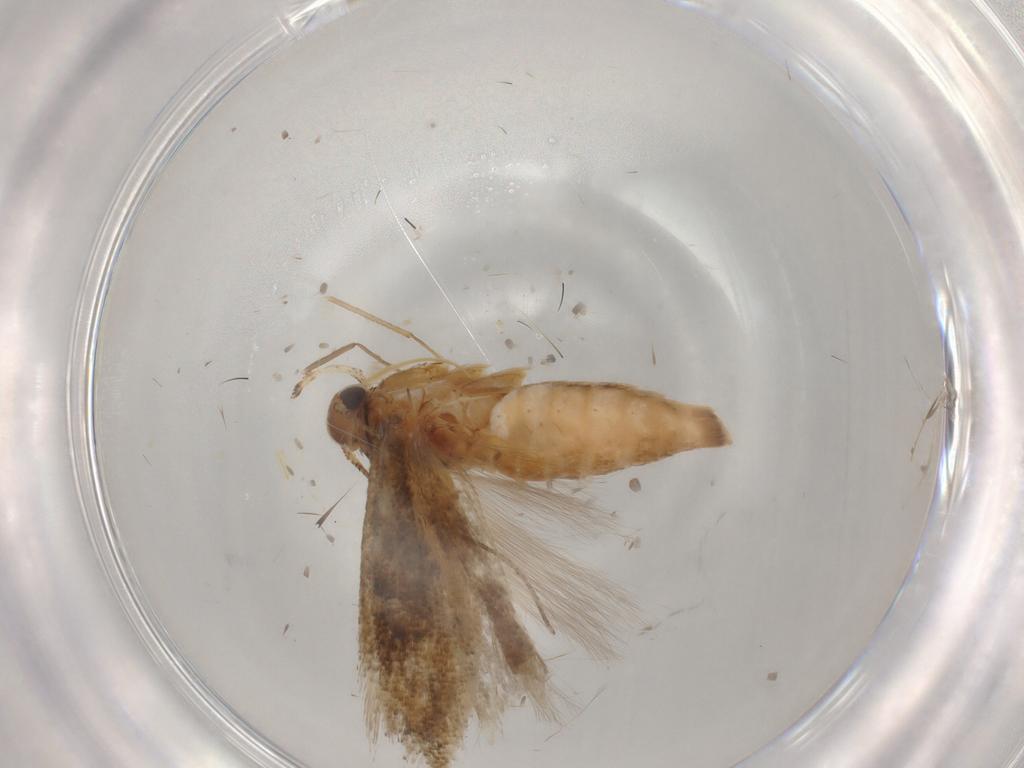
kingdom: Animalia
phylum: Arthropoda
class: Insecta
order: Lepidoptera
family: Gelechiidae
